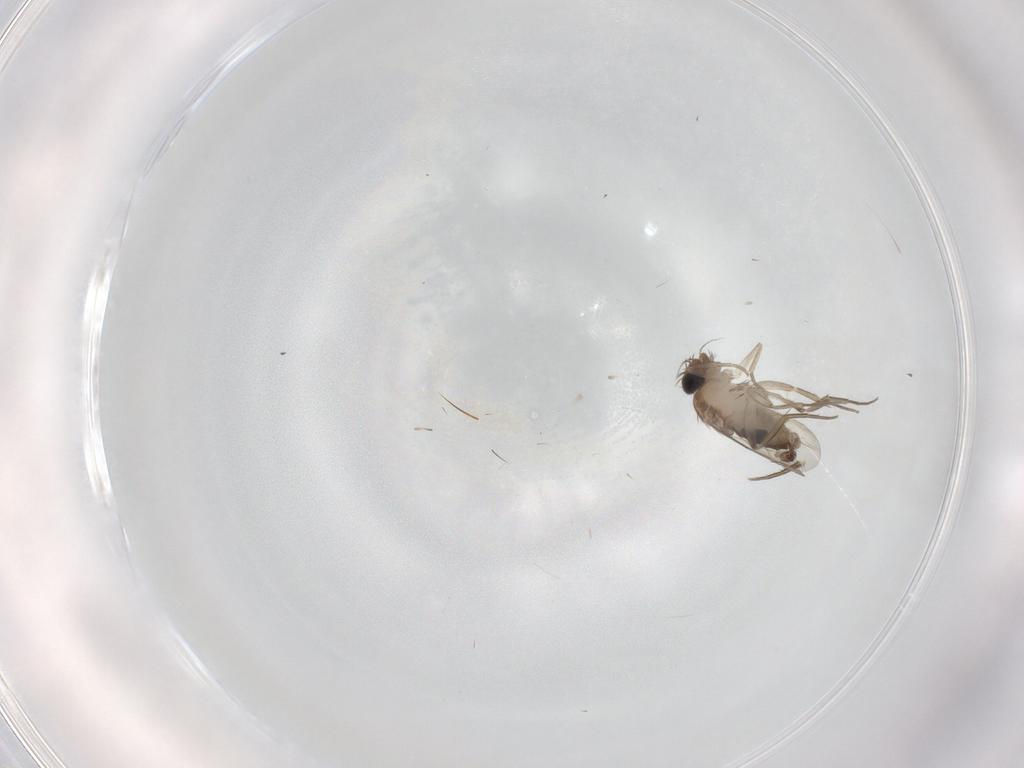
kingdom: Animalia
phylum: Arthropoda
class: Insecta
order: Diptera
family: Phoridae
